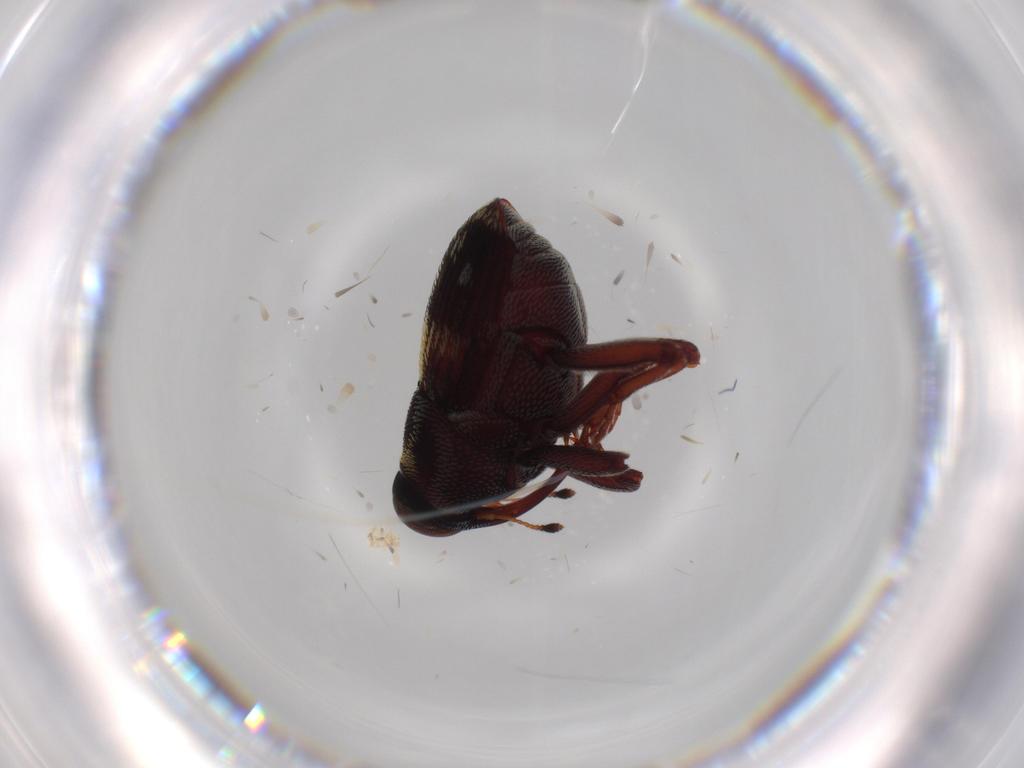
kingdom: Animalia
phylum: Arthropoda
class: Insecta
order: Coleoptera
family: Curculionidae
